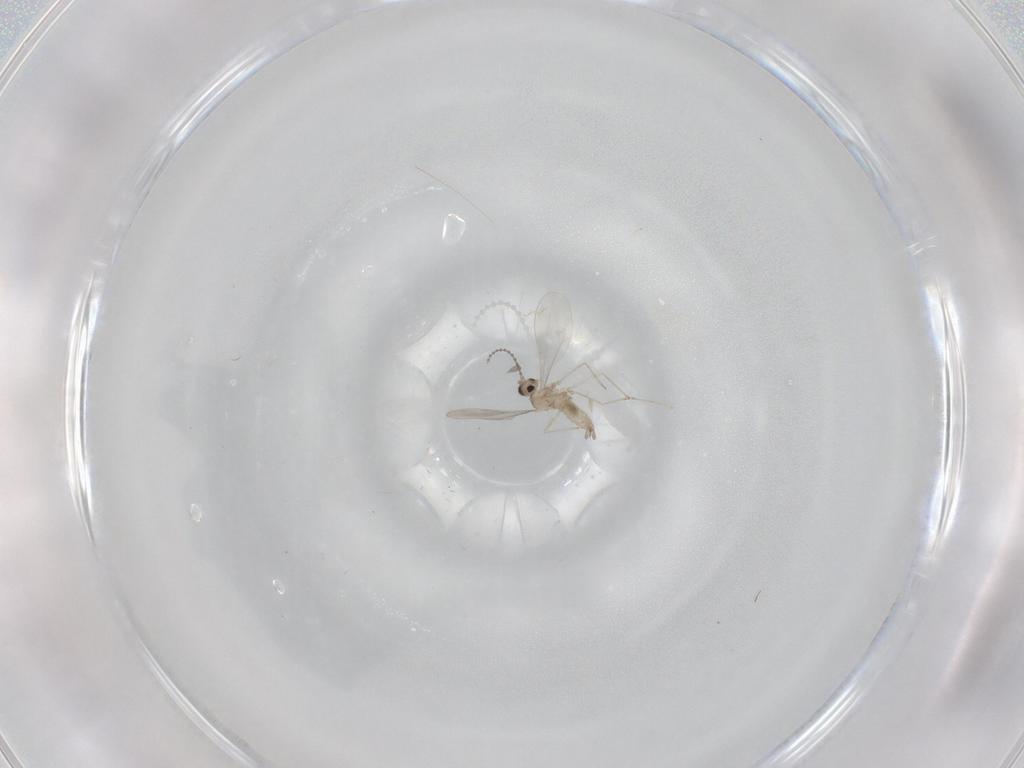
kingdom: Animalia
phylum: Arthropoda
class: Insecta
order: Diptera
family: Cecidomyiidae
